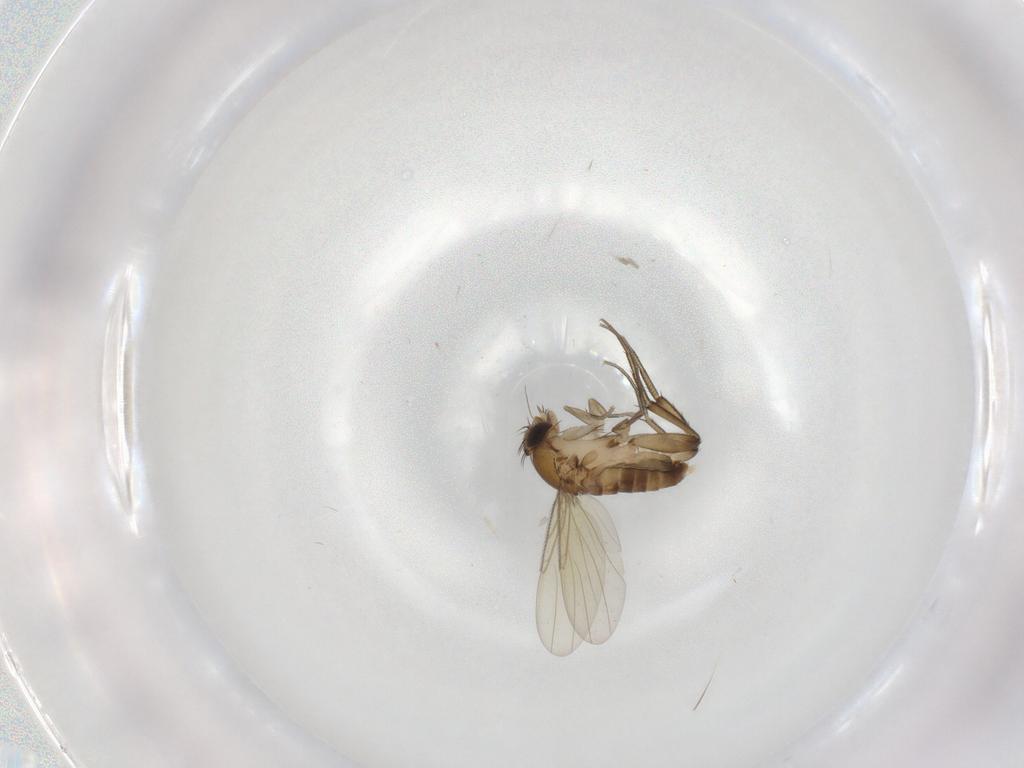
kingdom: Animalia
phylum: Arthropoda
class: Insecta
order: Diptera
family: Phoridae
